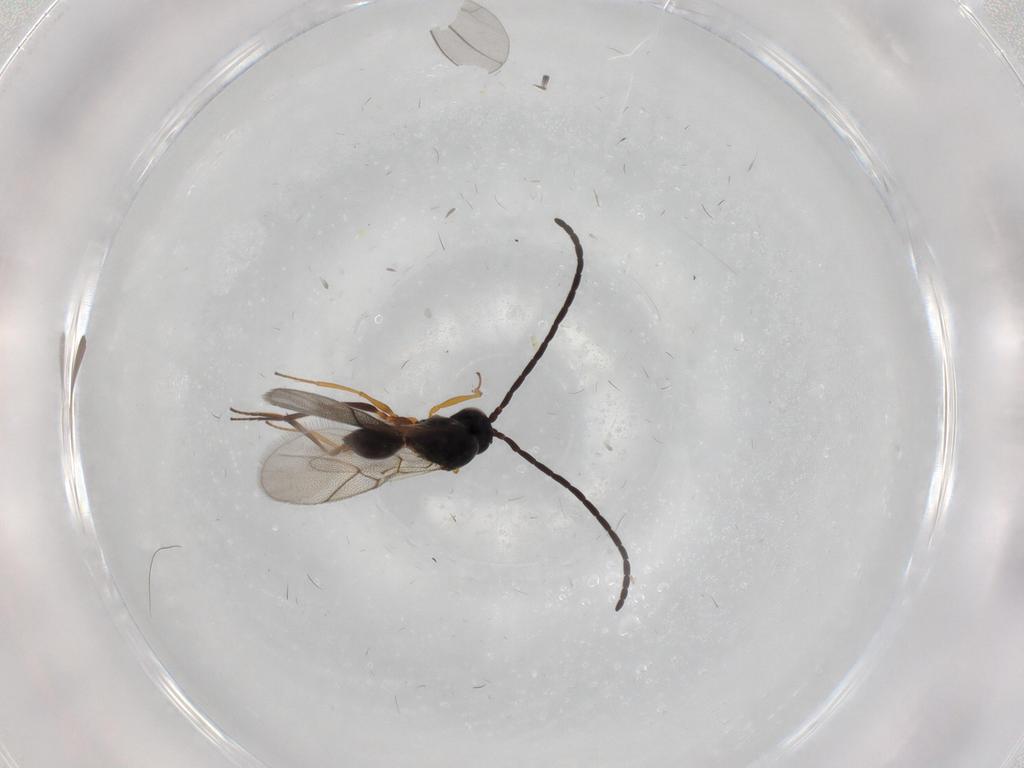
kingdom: Animalia
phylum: Arthropoda
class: Insecta
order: Hymenoptera
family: Figitidae
